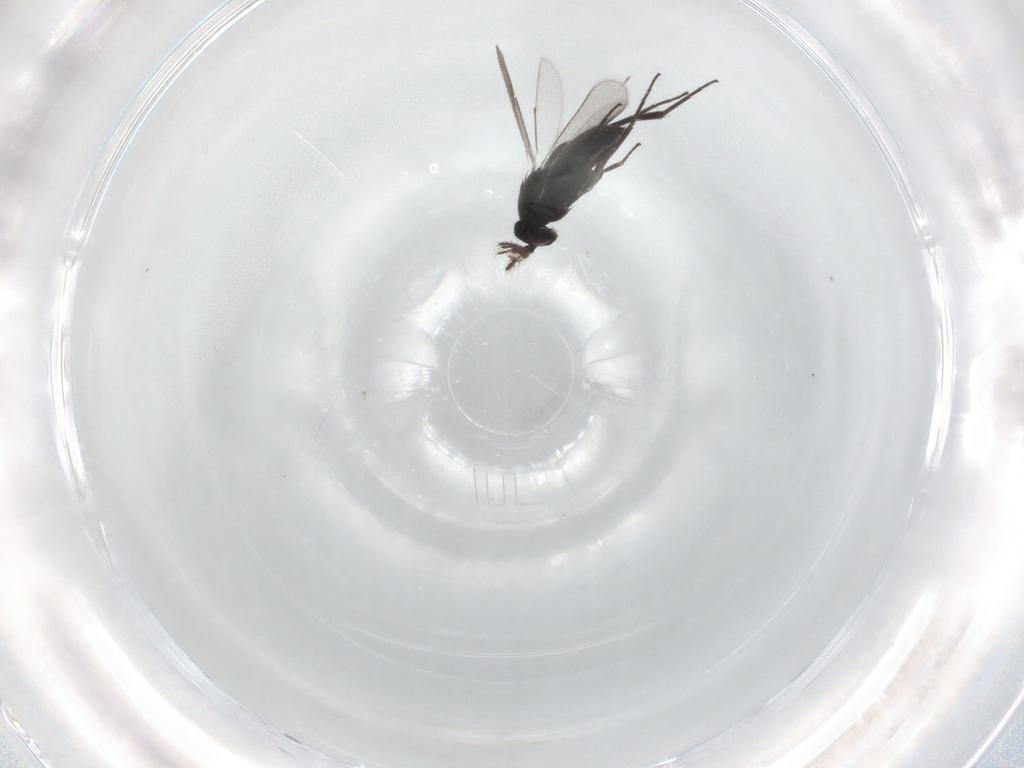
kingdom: Animalia
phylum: Arthropoda
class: Insecta
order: Hymenoptera
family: Eulophidae
